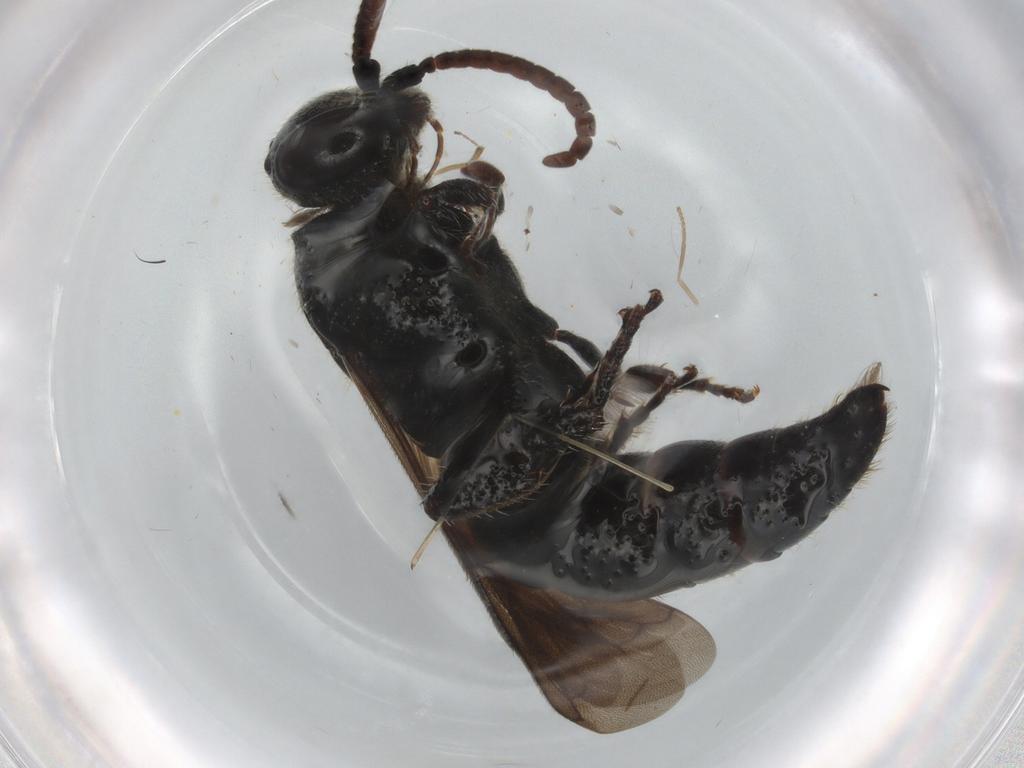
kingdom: Animalia
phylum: Arthropoda
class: Insecta
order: Hymenoptera
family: Tiphiidae
